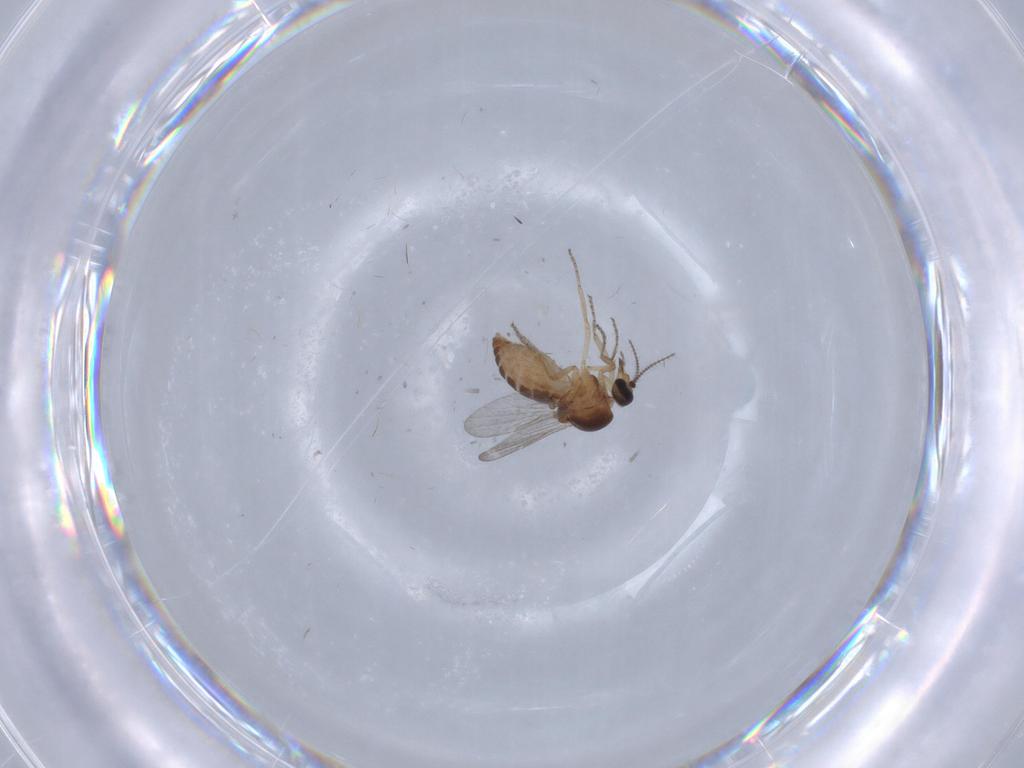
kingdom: Animalia
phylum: Arthropoda
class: Insecta
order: Diptera
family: Ceratopogonidae
